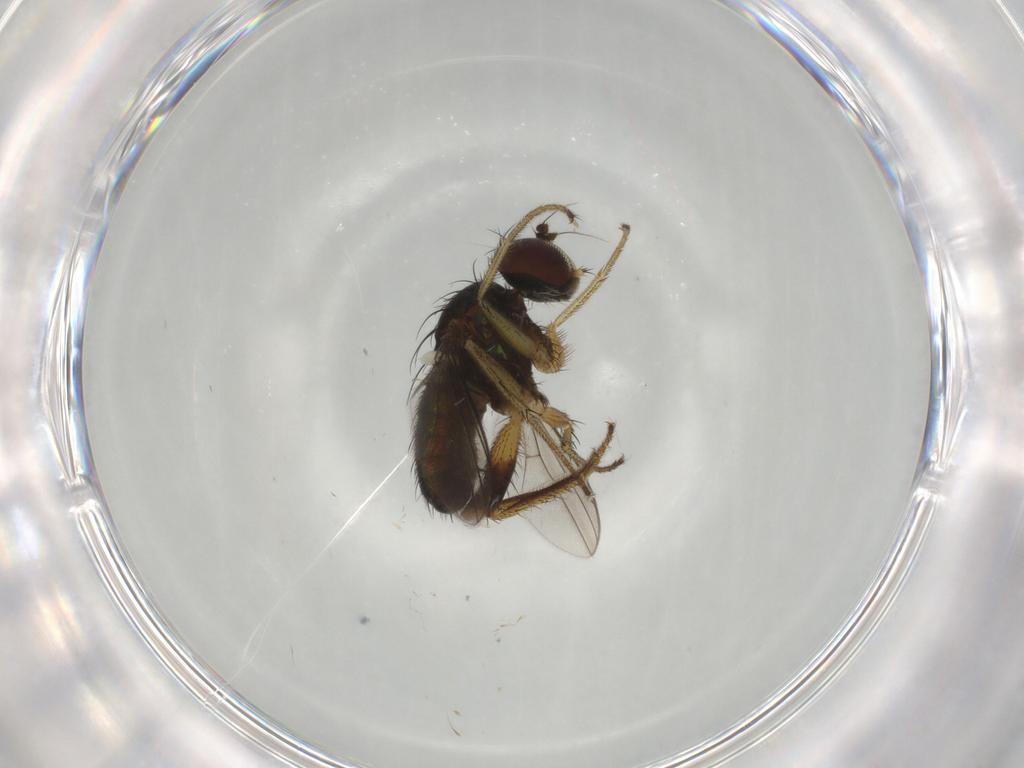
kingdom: Animalia
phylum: Arthropoda
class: Insecta
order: Diptera
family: Dolichopodidae
